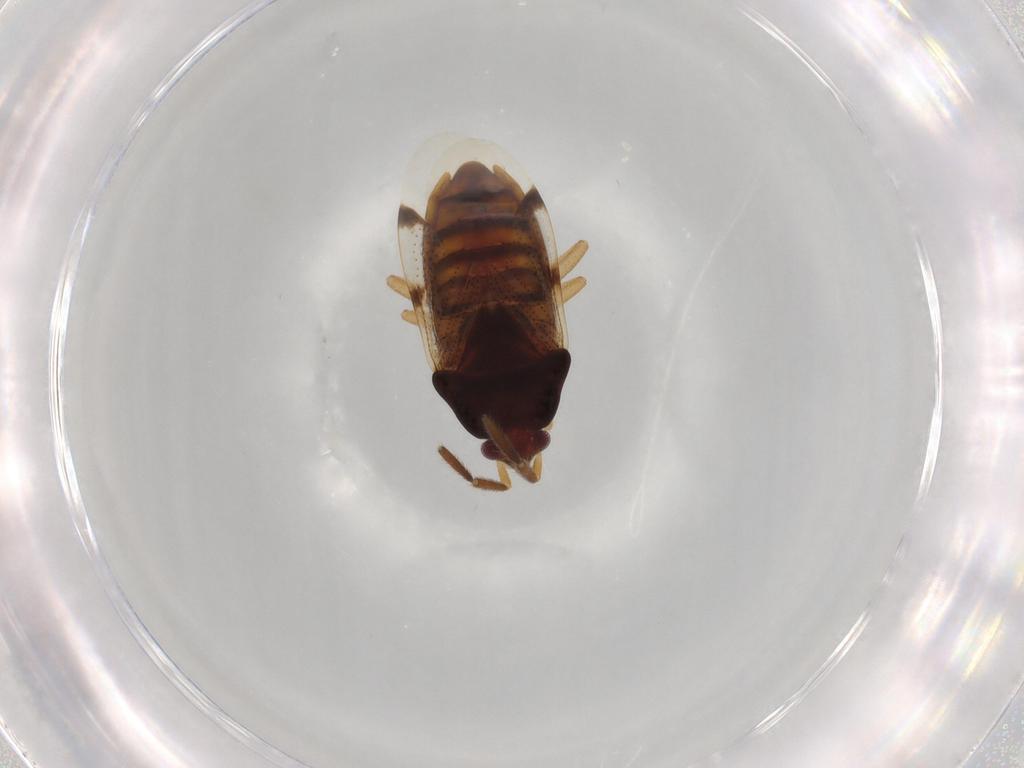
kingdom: Animalia
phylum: Arthropoda
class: Insecta
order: Hemiptera
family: Rhyparochromidae
